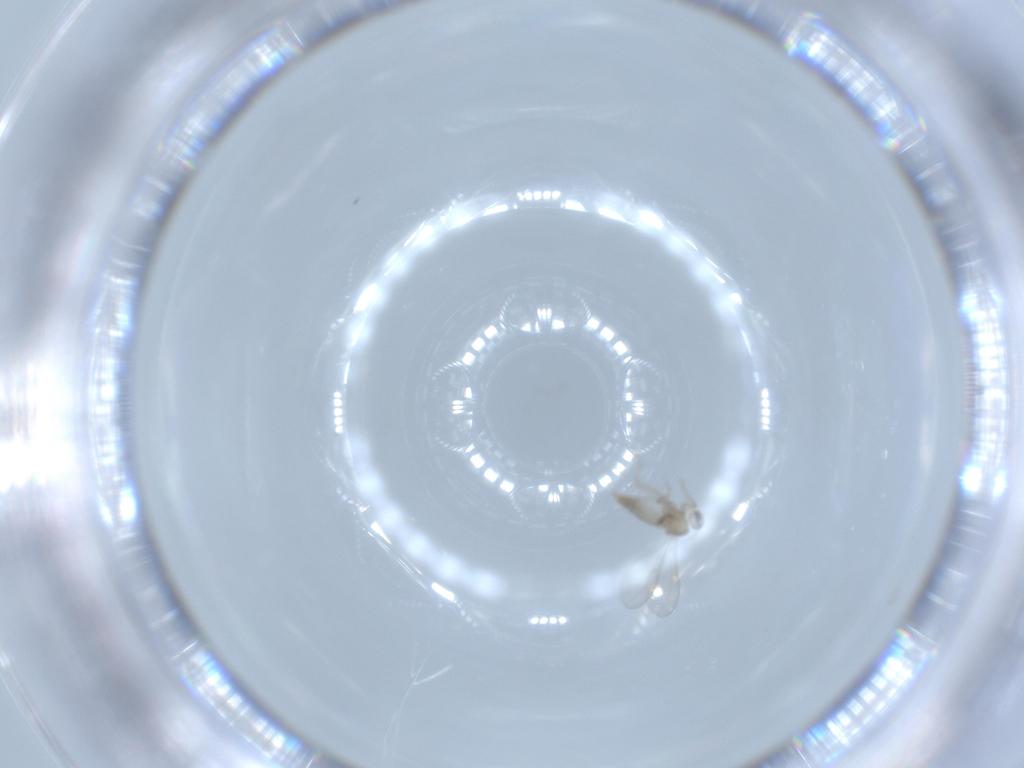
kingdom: Animalia
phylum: Arthropoda
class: Insecta
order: Diptera
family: Cecidomyiidae
